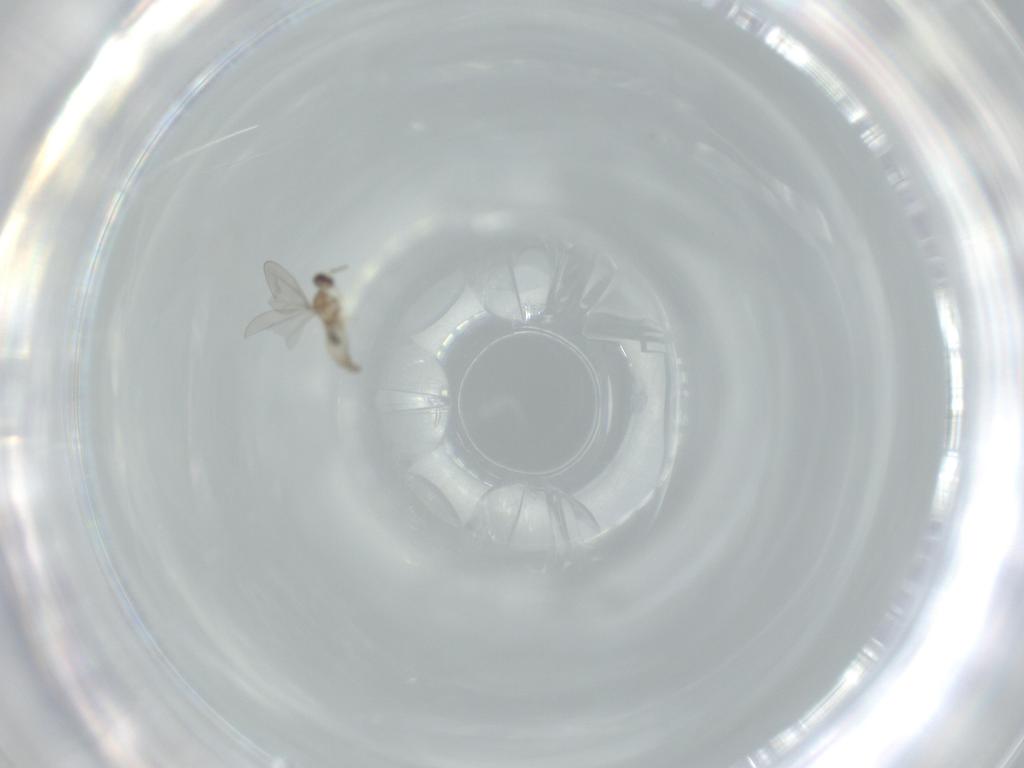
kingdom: Animalia
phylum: Arthropoda
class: Insecta
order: Diptera
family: Cecidomyiidae
